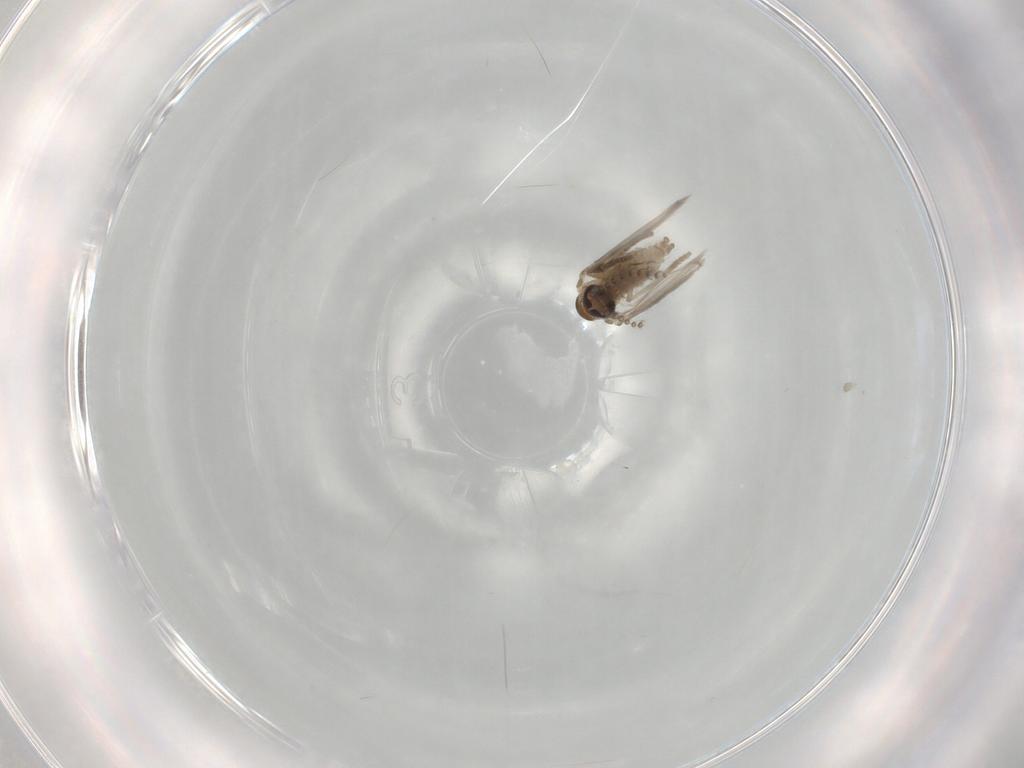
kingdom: Animalia
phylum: Arthropoda
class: Insecta
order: Diptera
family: Psychodidae
